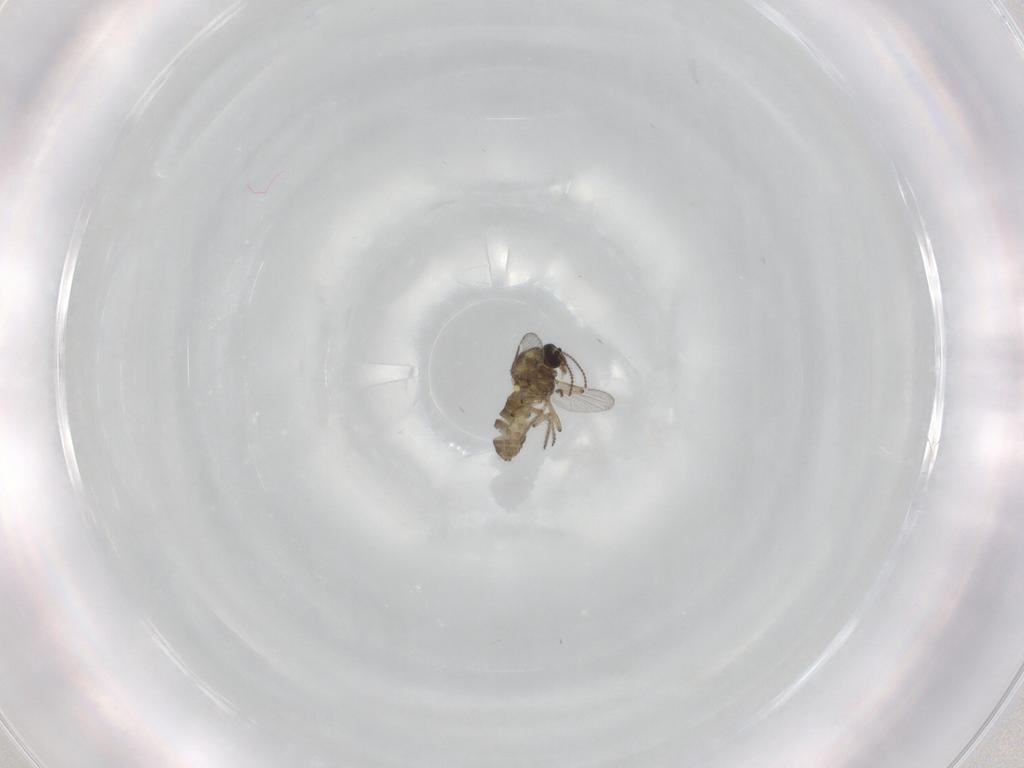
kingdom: Animalia
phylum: Arthropoda
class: Insecta
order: Diptera
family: Ceratopogonidae
